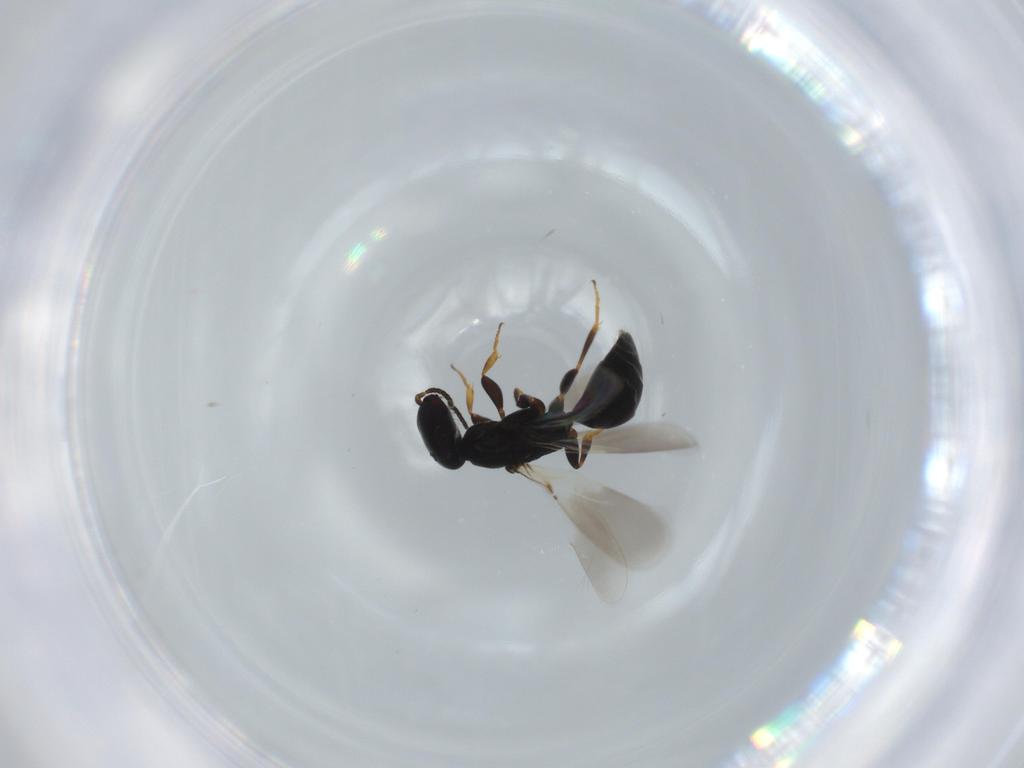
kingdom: Animalia
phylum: Arthropoda
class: Insecta
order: Hymenoptera
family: Bethylidae
